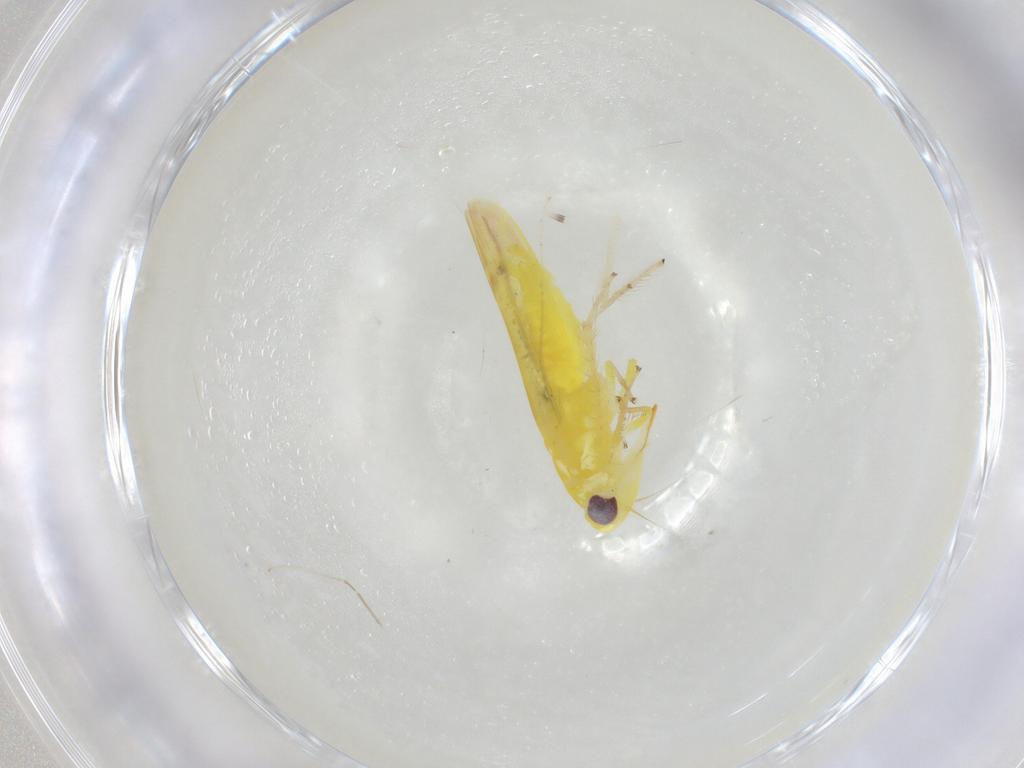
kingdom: Animalia
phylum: Arthropoda
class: Insecta
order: Hemiptera
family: Cicadellidae
